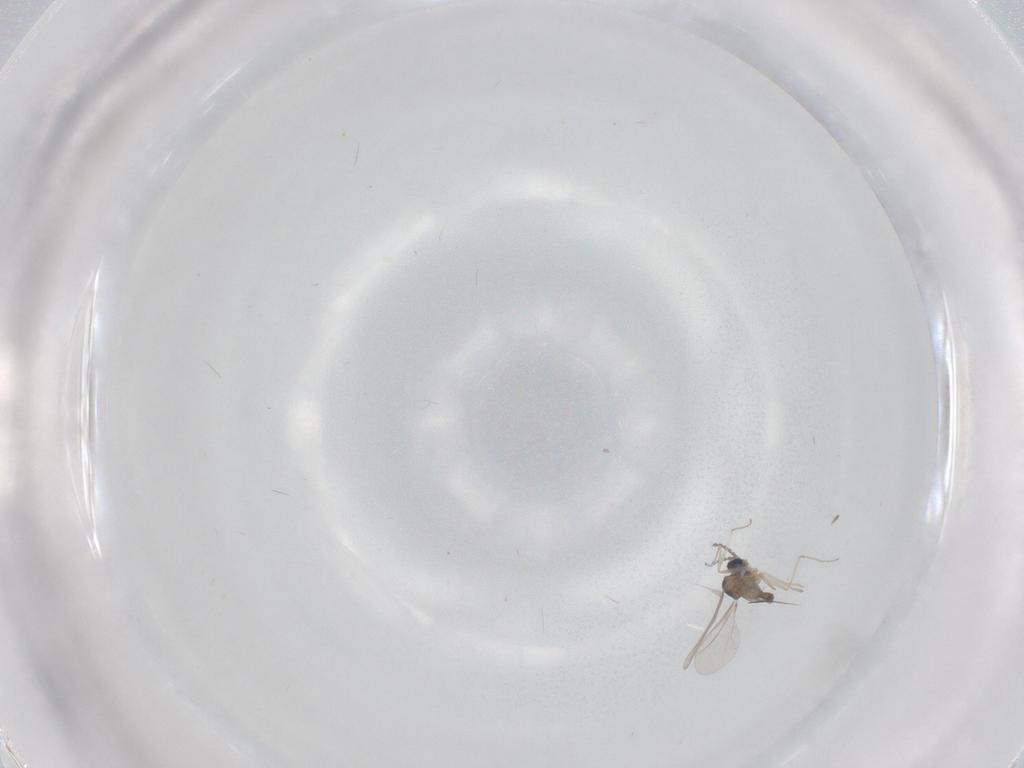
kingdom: Animalia
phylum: Arthropoda
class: Insecta
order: Diptera
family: Cecidomyiidae
